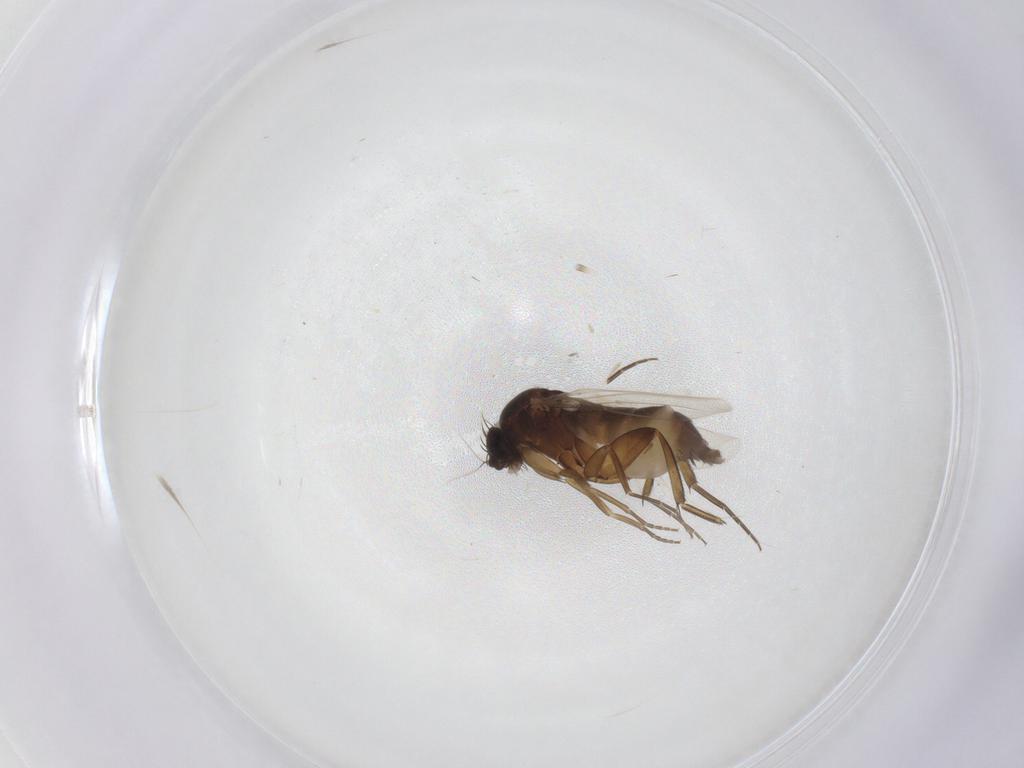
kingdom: Animalia
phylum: Arthropoda
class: Insecta
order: Diptera
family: Phoridae
